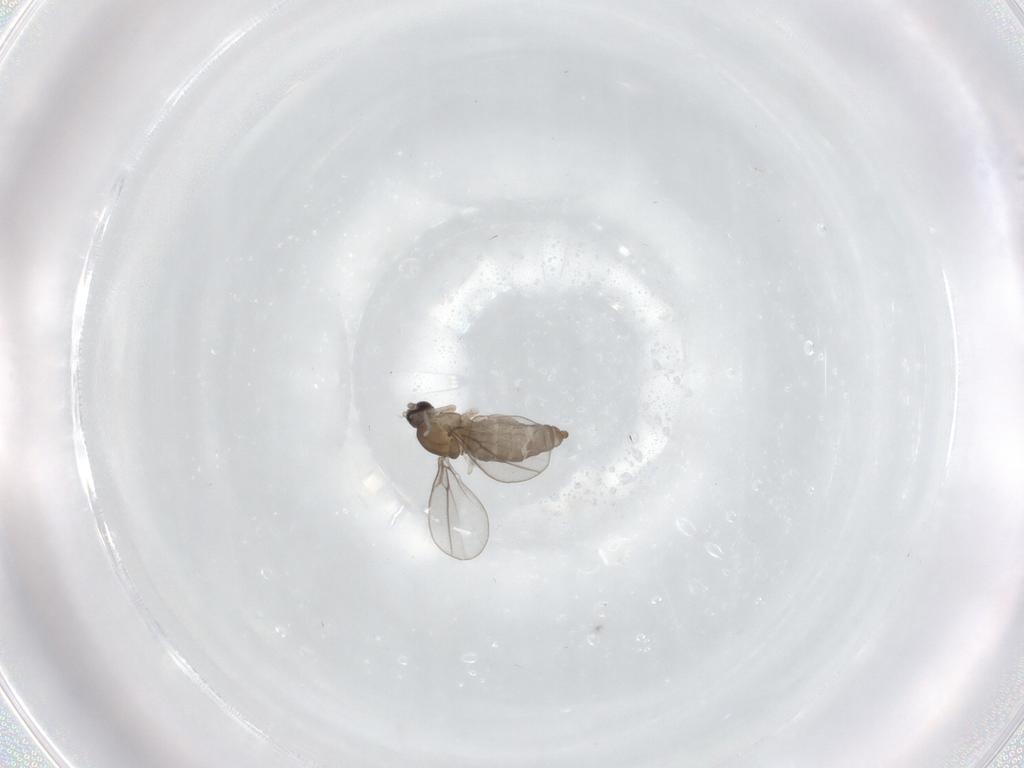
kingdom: Animalia
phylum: Arthropoda
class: Insecta
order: Diptera
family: Cecidomyiidae
